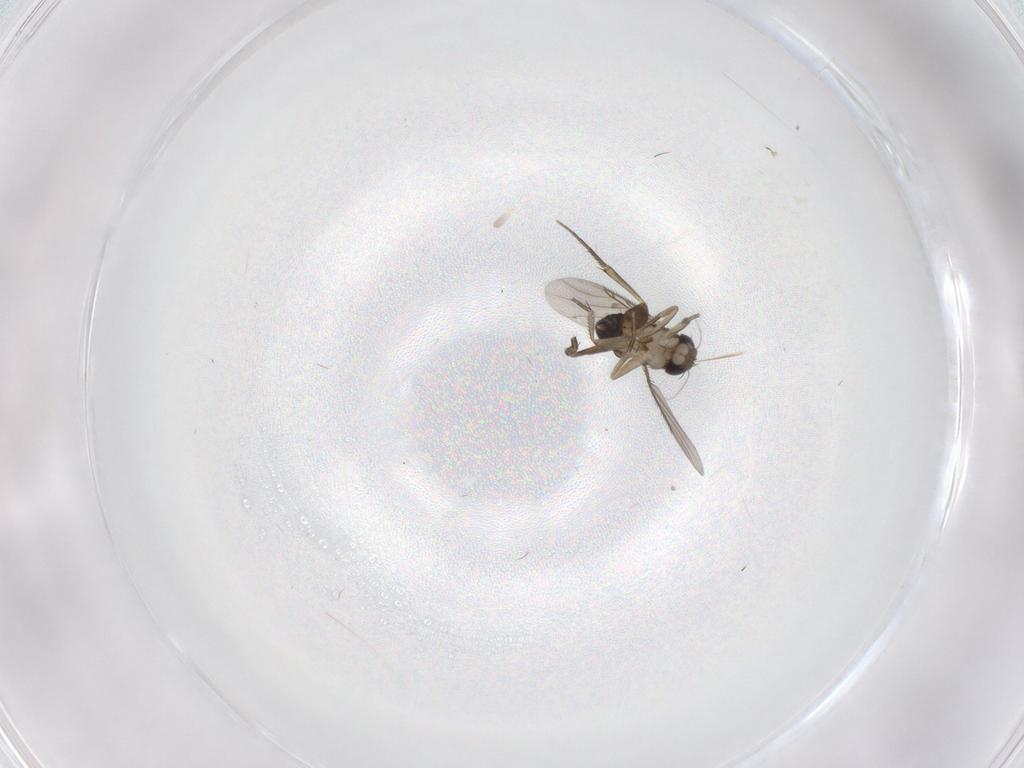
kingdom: Animalia
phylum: Arthropoda
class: Insecta
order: Diptera
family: Phoridae
